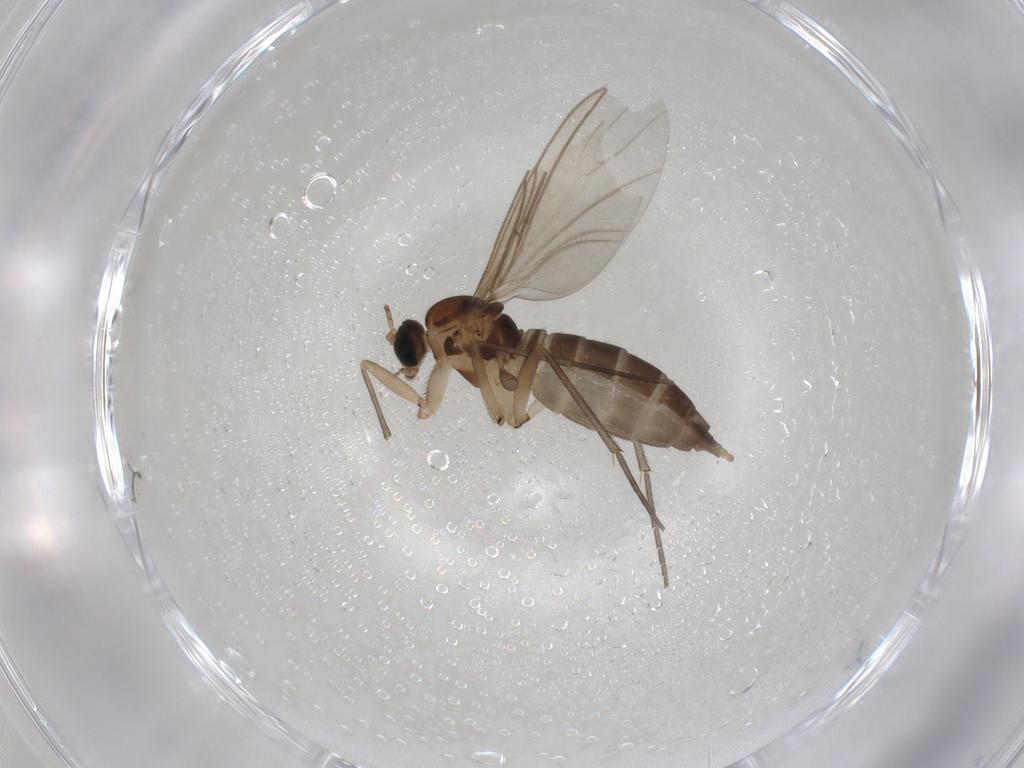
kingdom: Animalia
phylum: Arthropoda
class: Insecta
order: Diptera
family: Sciaridae
